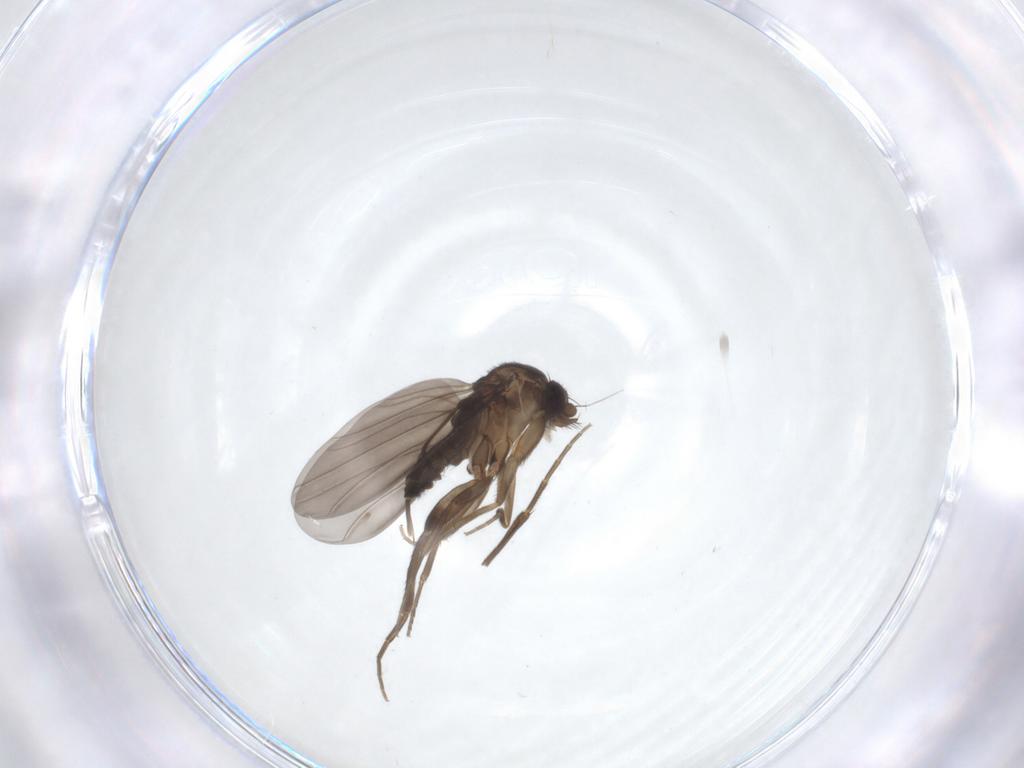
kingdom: Animalia
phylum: Arthropoda
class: Insecta
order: Diptera
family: Phoridae
